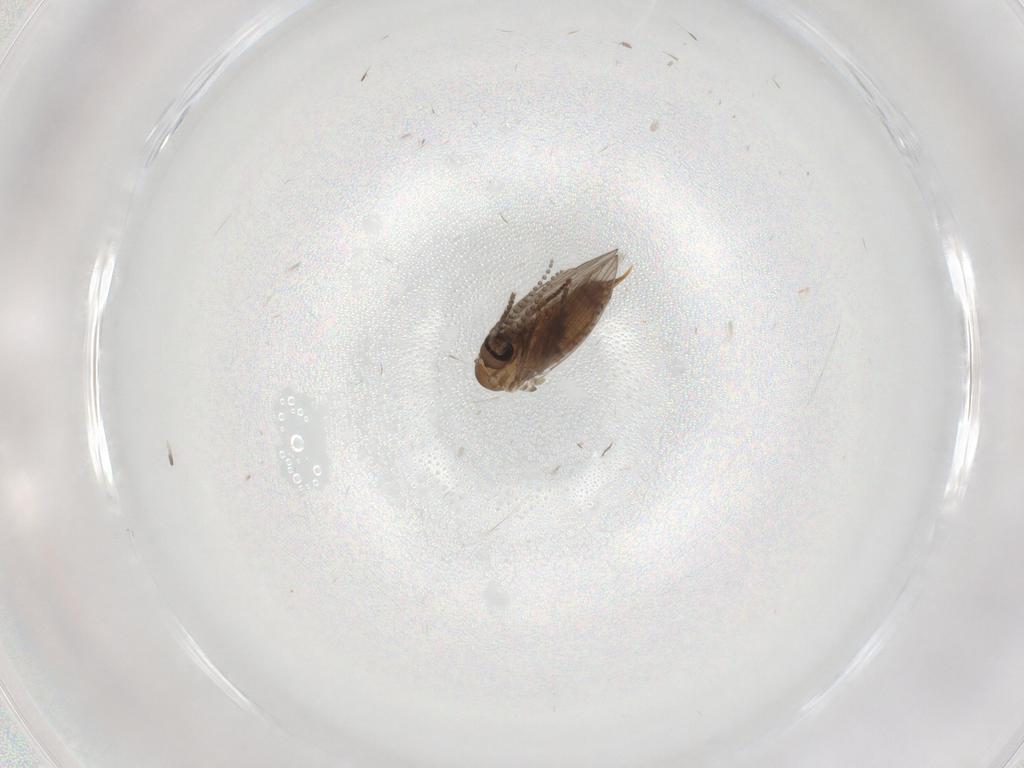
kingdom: Animalia
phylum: Arthropoda
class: Insecta
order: Diptera
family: Psychodidae
